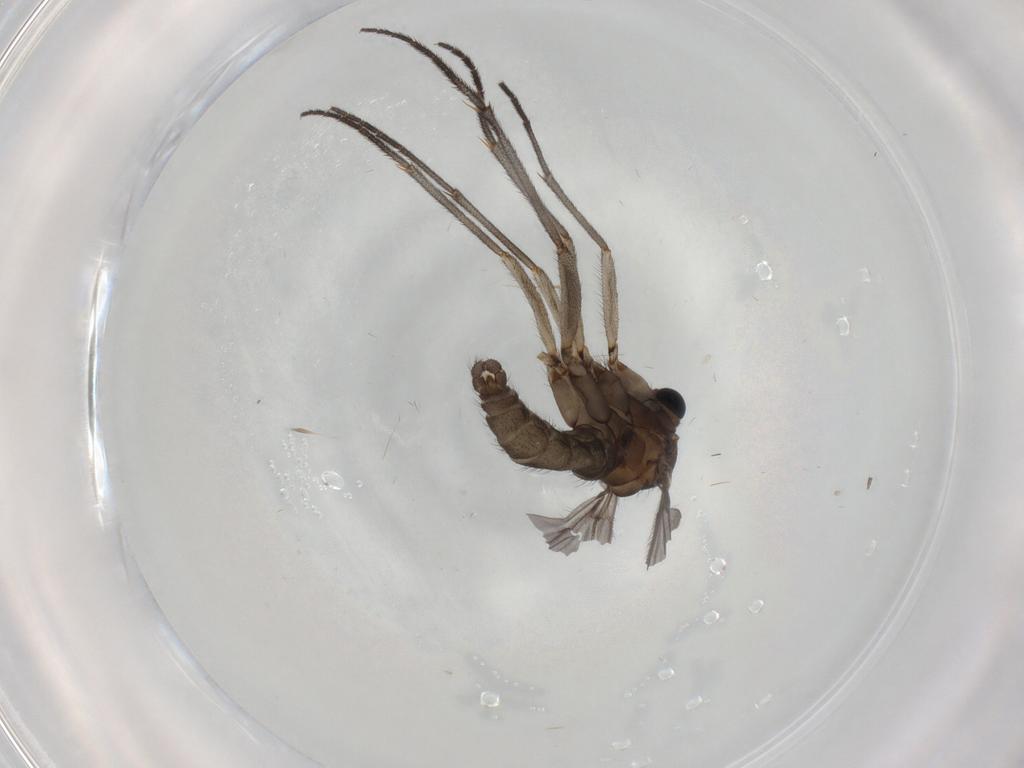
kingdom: Animalia
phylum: Arthropoda
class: Insecta
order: Diptera
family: Sciaridae
